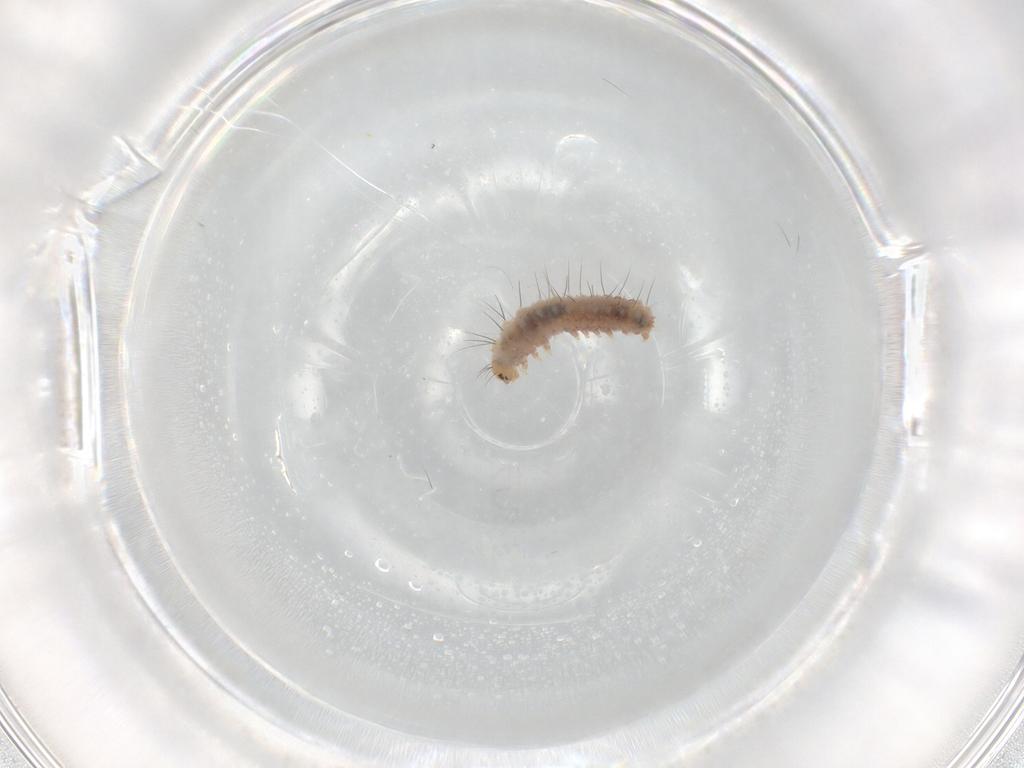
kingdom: Animalia
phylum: Arthropoda
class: Insecta
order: Lepidoptera
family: Erebidae
